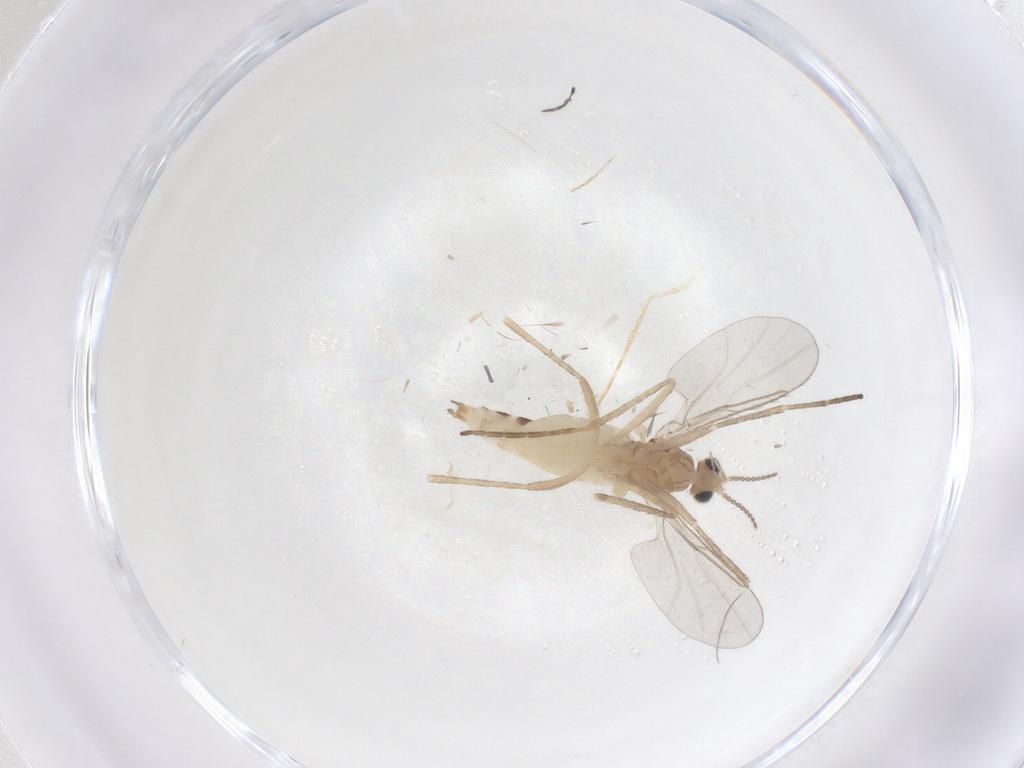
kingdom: Animalia
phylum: Arthropoda
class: Insecta
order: Diptera
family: Cecidomyiidae
